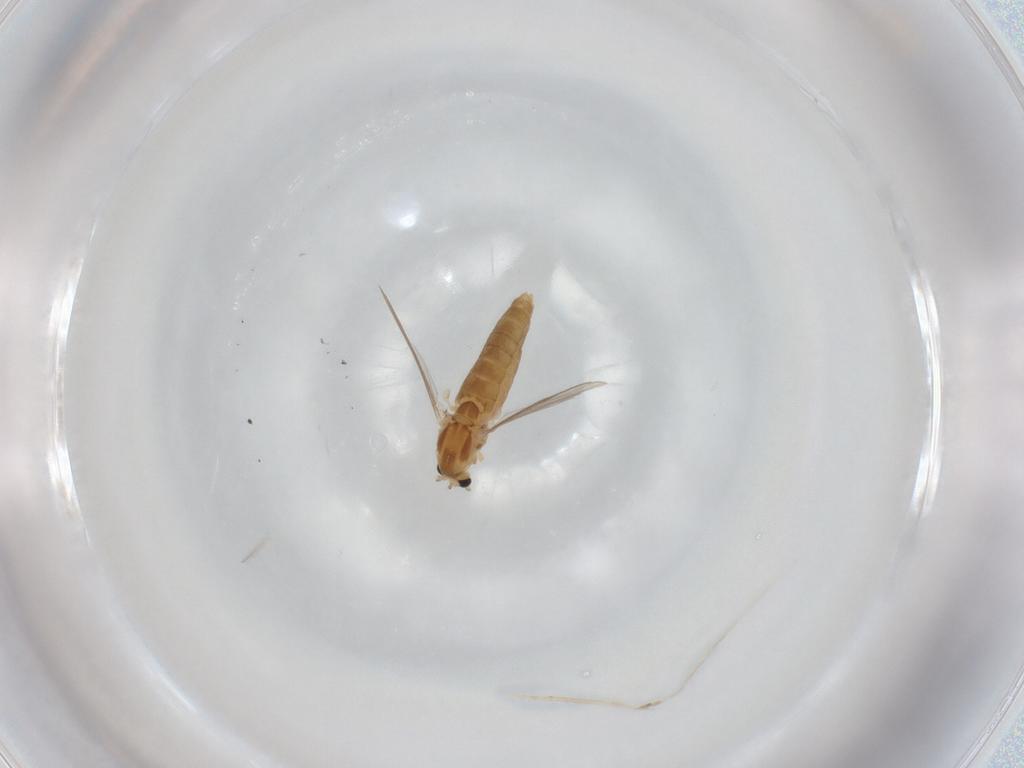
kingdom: Animalia
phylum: Arthropoda
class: Insecta
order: Diptera
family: Chironomidae
